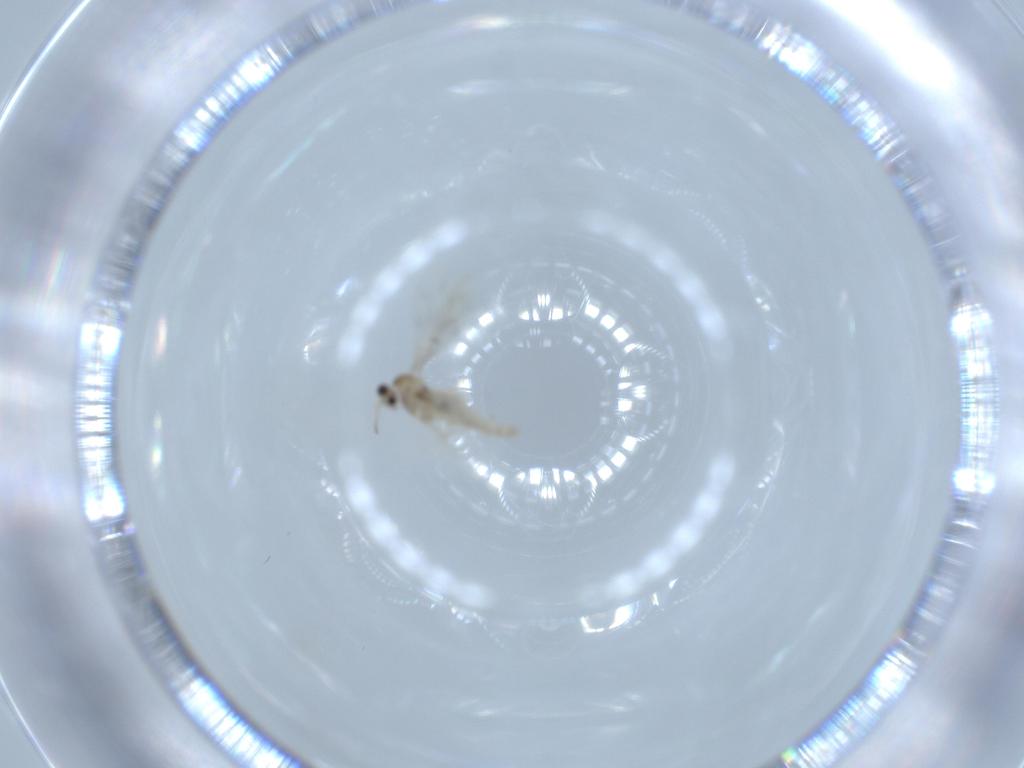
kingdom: Animalia
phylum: Arthropoda
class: Insecta
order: Diptera
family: Cecidomyiidae
